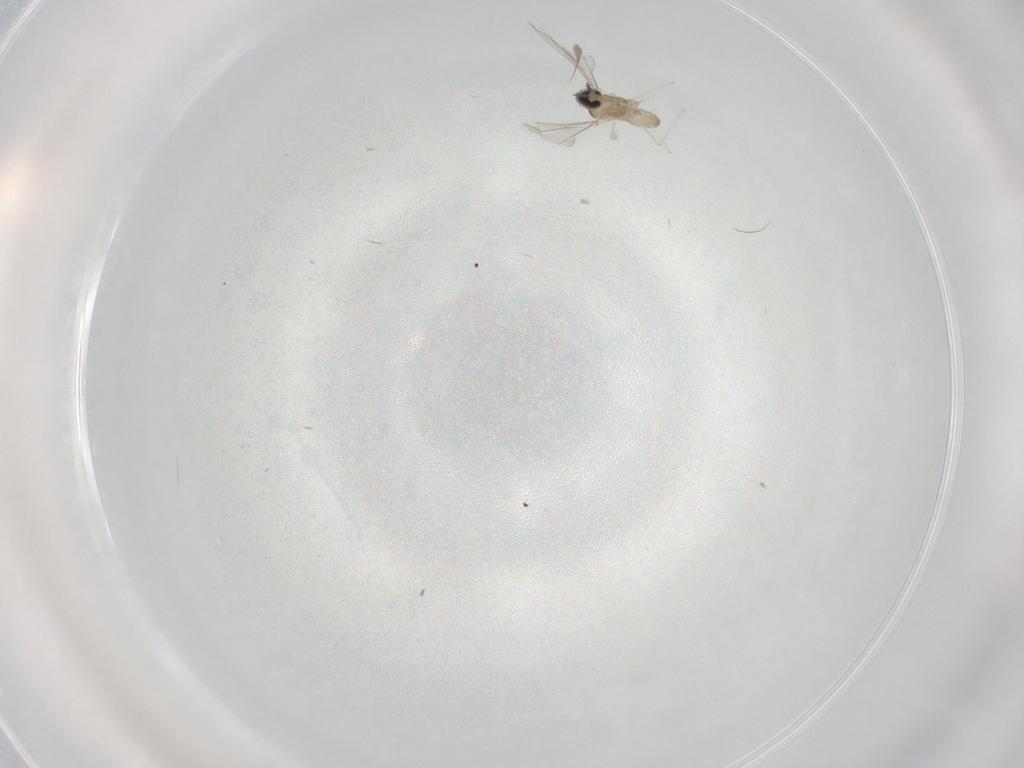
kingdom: Animalia
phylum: Arthropoda
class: Insecta
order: Diptera
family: Cecidomyiidae
